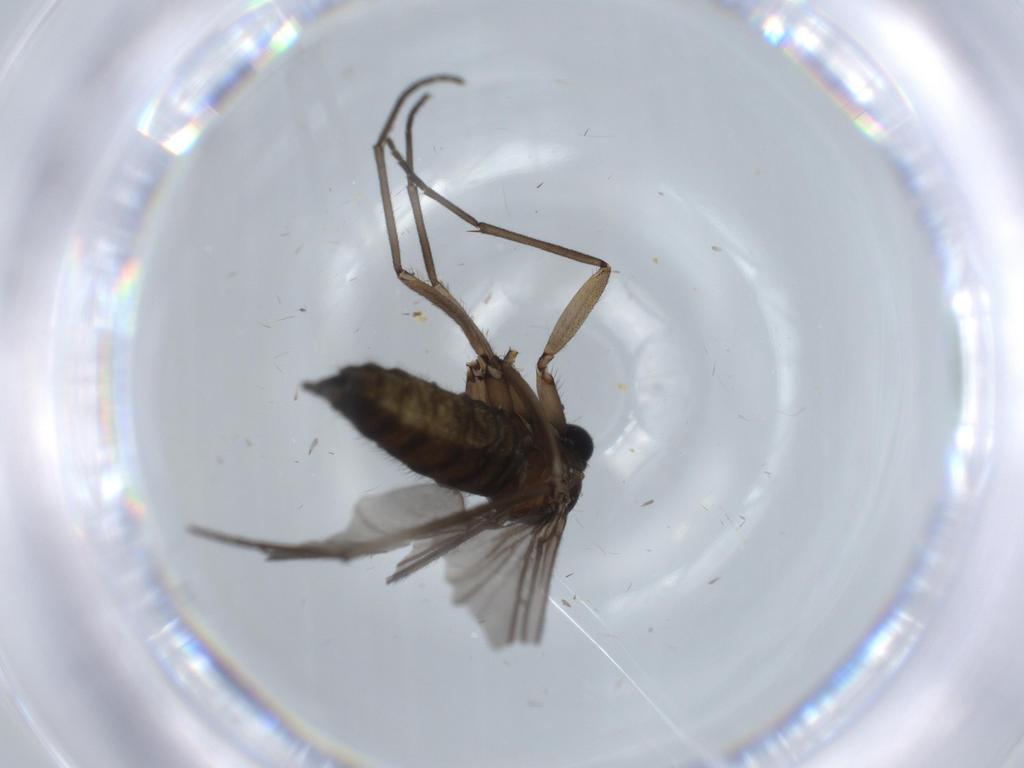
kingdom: Animalia
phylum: Arthropoda
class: Insecta
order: Diptera
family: Sciaridae
